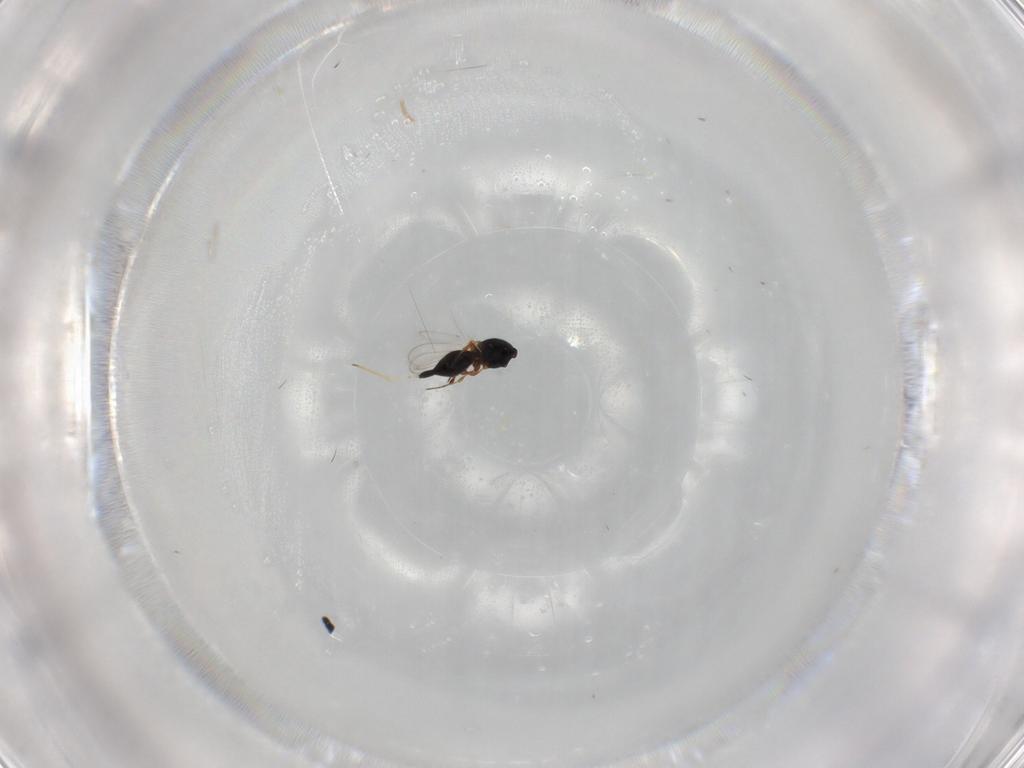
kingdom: Animalia
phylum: Arthropoda
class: Insecta
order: Hymenoptera
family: Platygastridae
